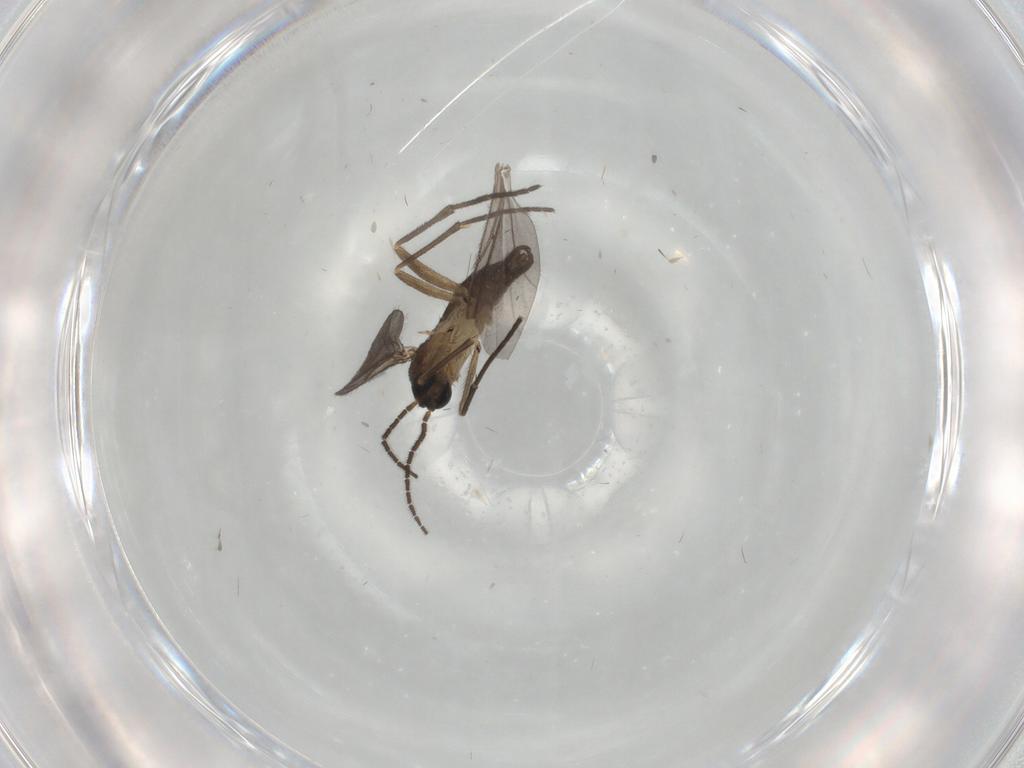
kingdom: Animalia
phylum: Arthropoda
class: Insecta
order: Diptera
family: Sciaridae
